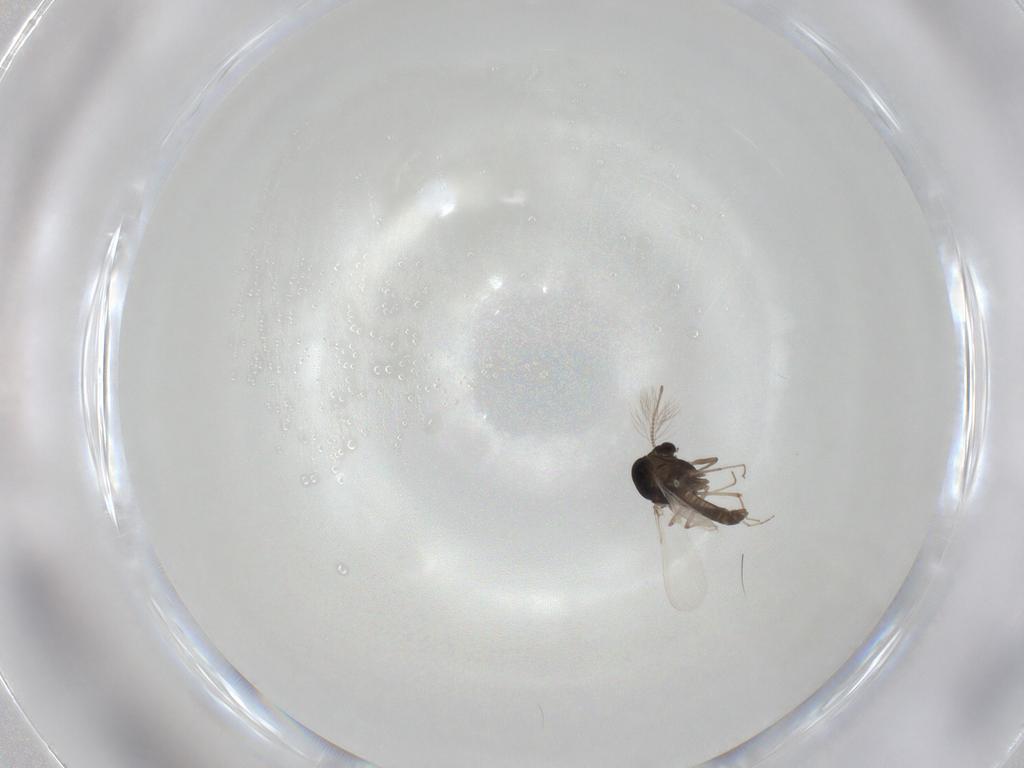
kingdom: Animalia
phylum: Arthropoda
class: Insecta
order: Diptera
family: Chironomidae
